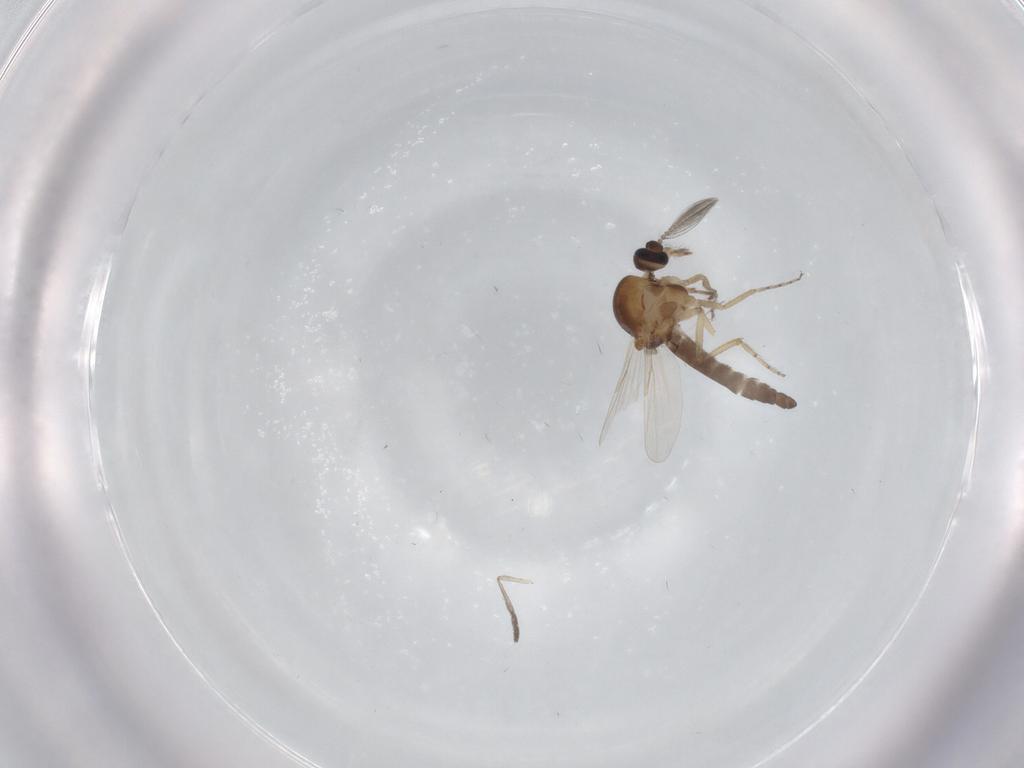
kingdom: Animalia
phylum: Arthropoda
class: Insecta
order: Diptera
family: Ceratopogonidae
